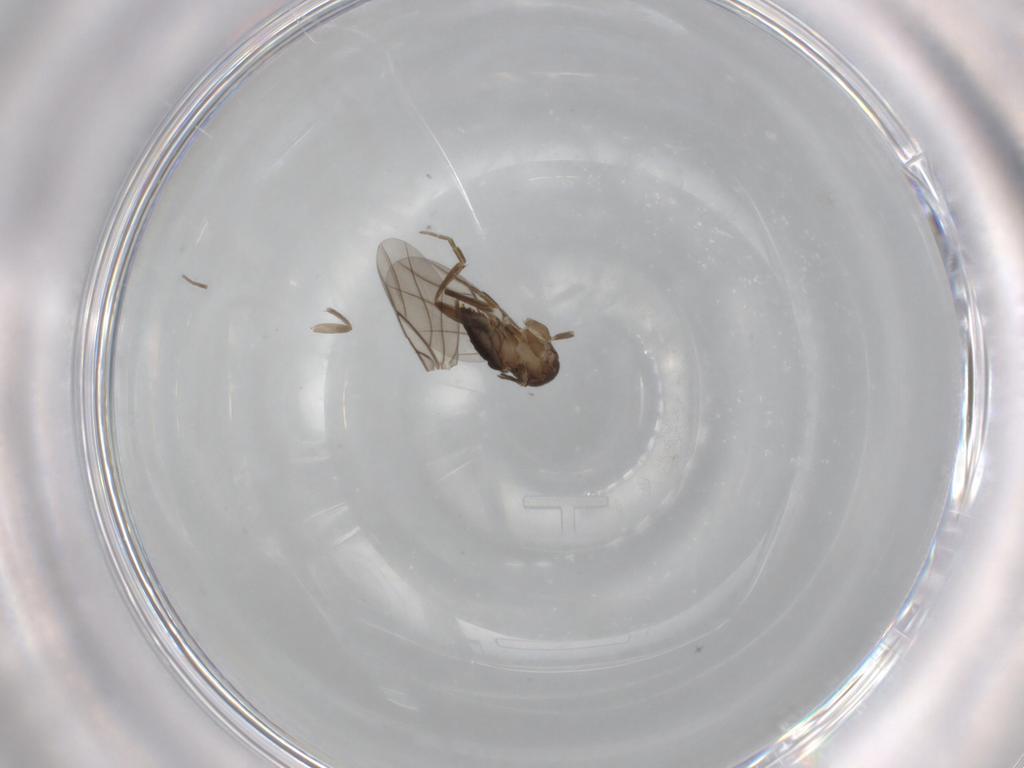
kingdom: Animalia
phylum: Arthropoda
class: Insecta
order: Diptera
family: Phoridae
